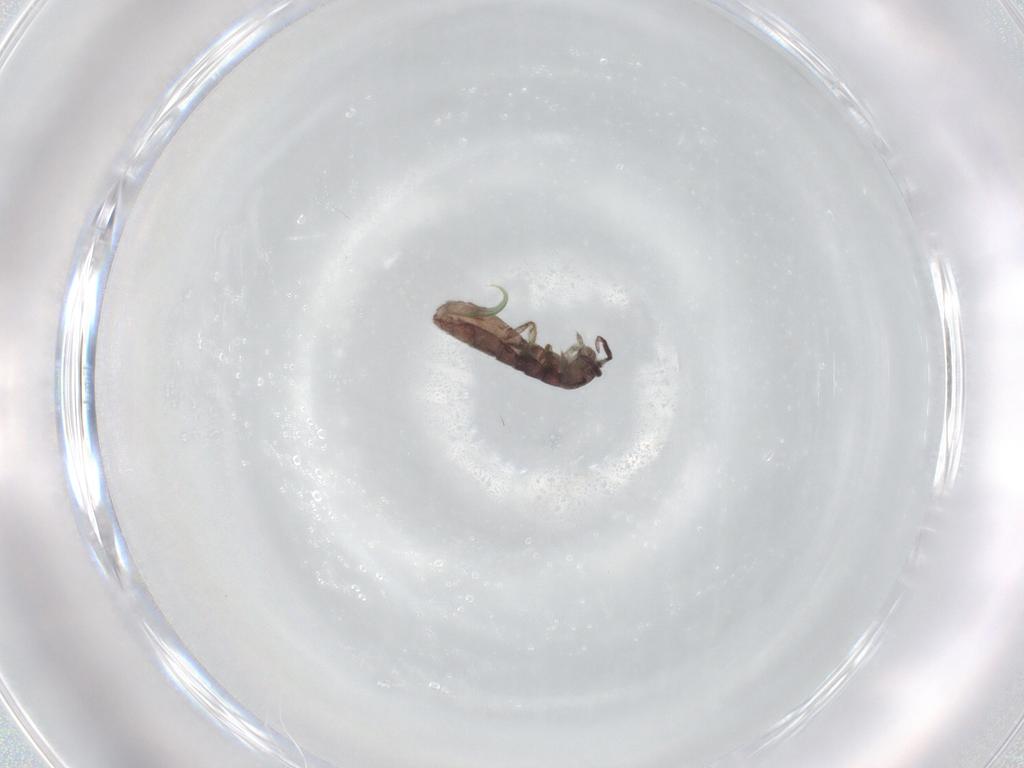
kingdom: Animalia
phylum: Arthropoda
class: Collembola
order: Entomobryomorpha
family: Isotomidae
